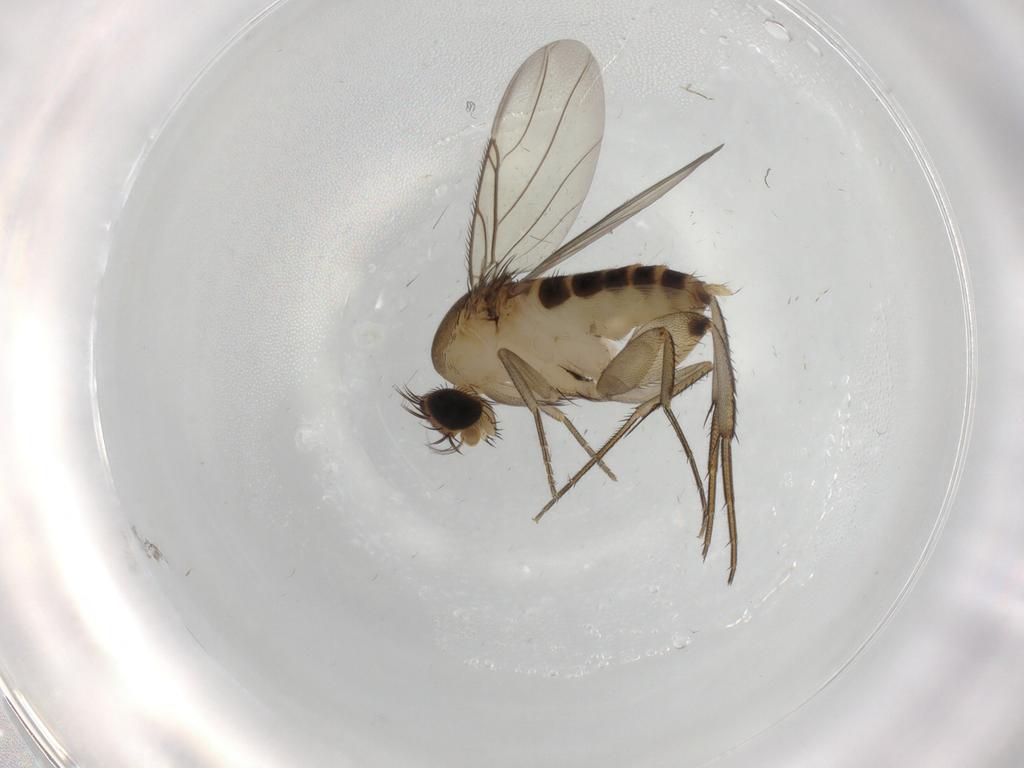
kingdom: Animalia
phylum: Arthropoda
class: Insecta
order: Diptera
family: Phoridae
